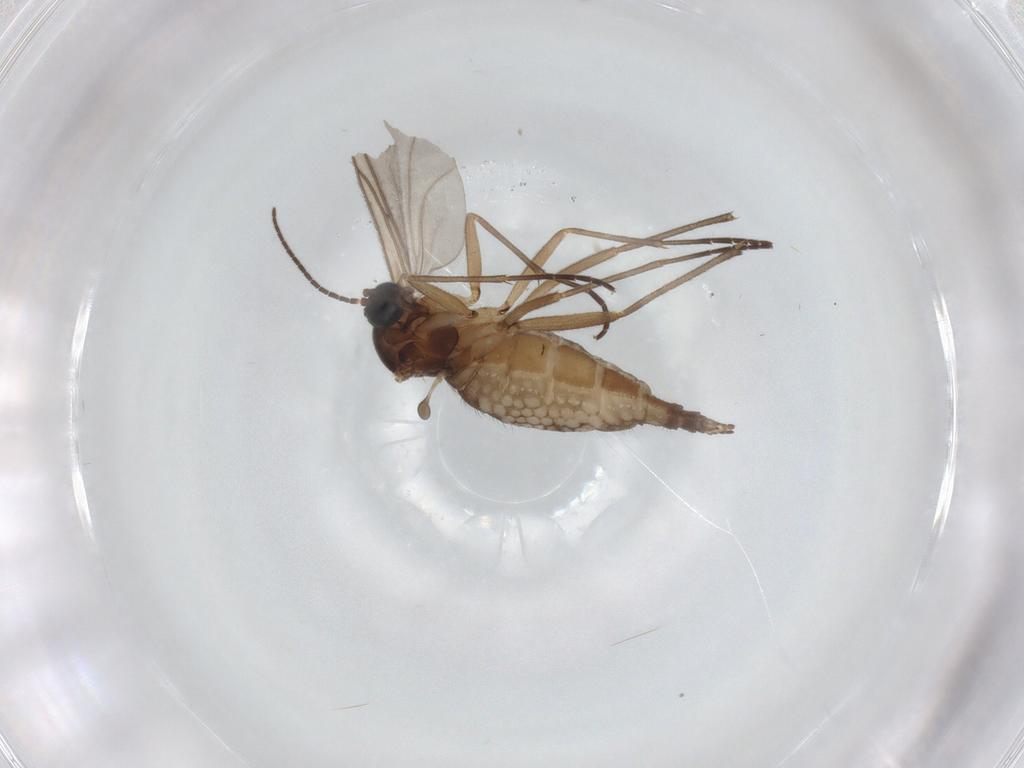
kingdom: Animalia
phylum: Arthropoda
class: Insecta
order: Diptera
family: Sciaridae
